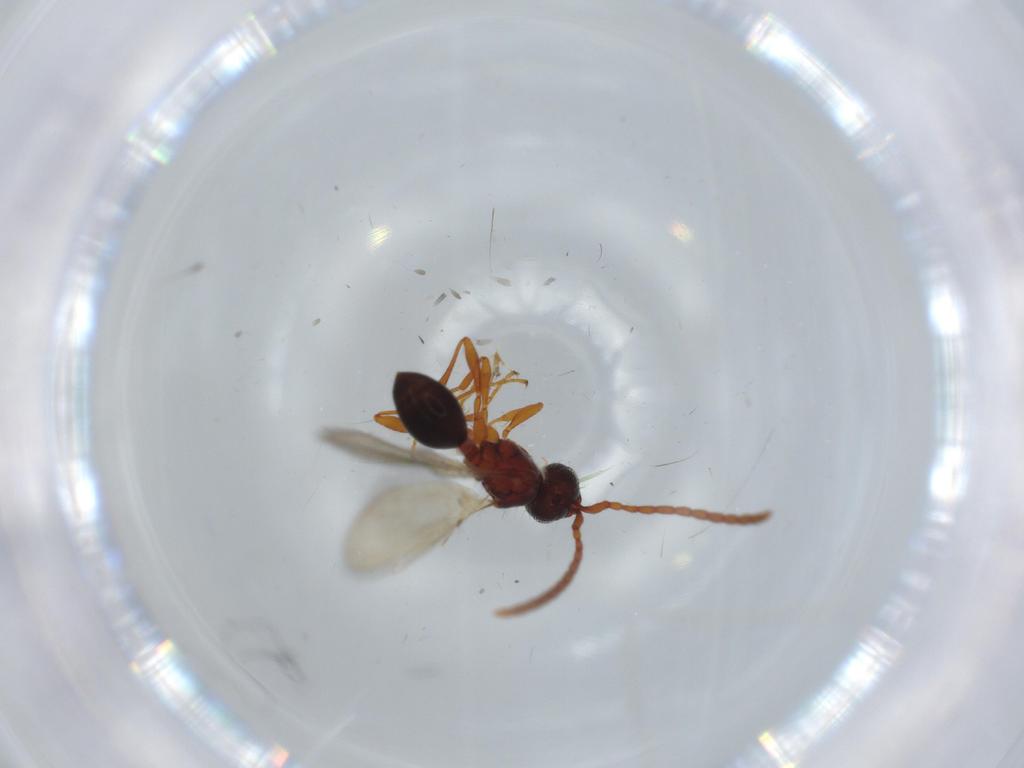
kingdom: Animalia
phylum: Arthropoda
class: Insecta
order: Hymenoptera
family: Diapriidae
